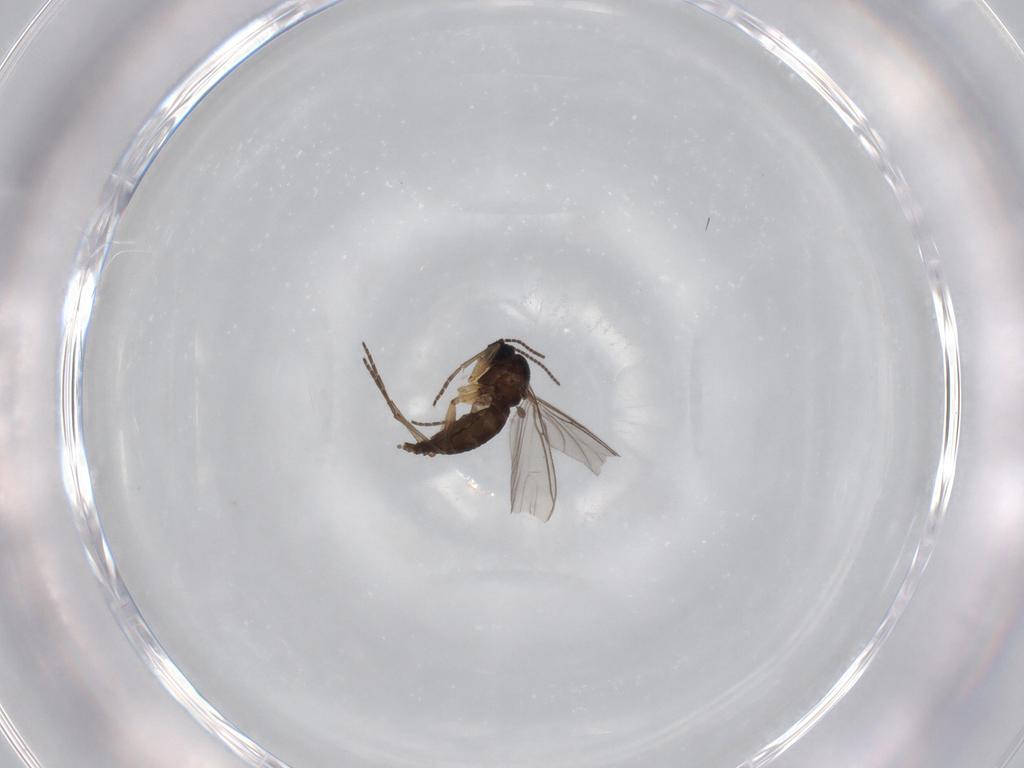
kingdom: Animalia
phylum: Arthropoda
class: Insecta
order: Diptera
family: Sciaridae
